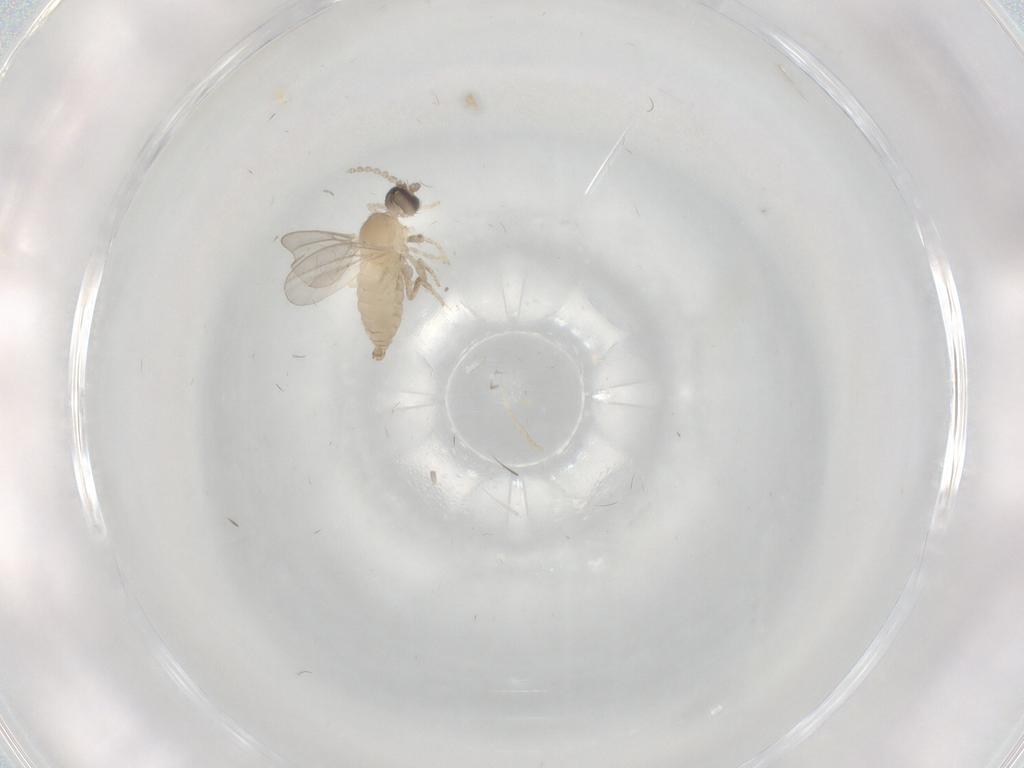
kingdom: Animalia
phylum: Arthropoda
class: Insecta
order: Diptera
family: Cecidomyiidae
